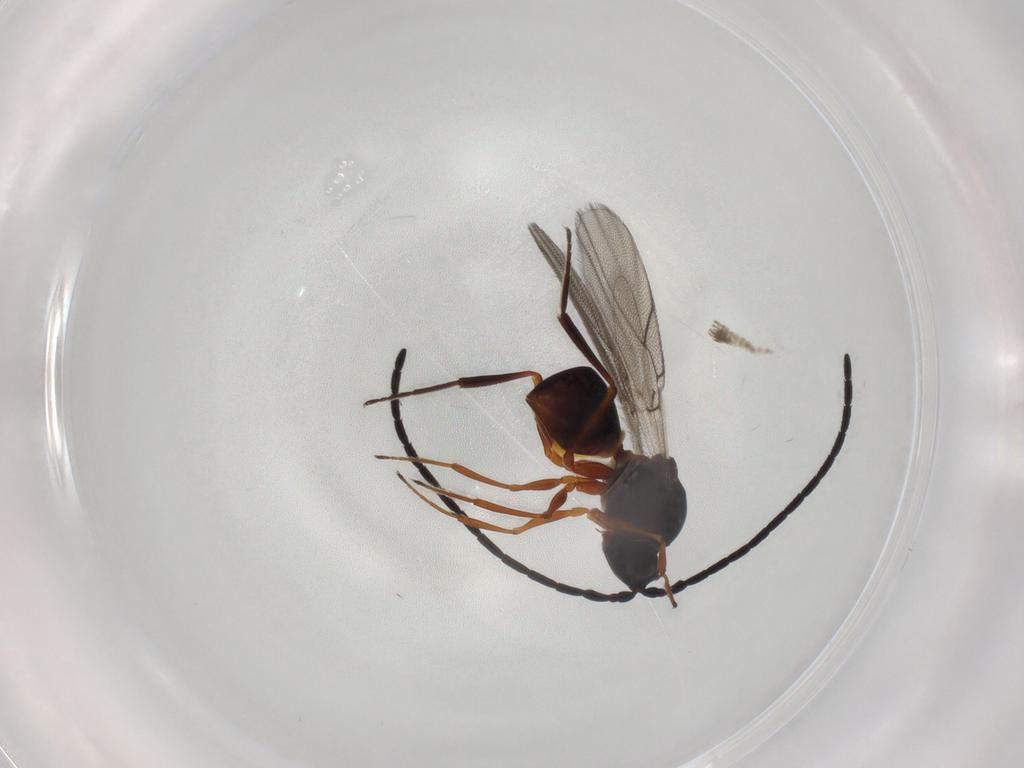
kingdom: Animalia
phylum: Arthropoda
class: Insecta
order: Hymenoptera
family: Figitidae
